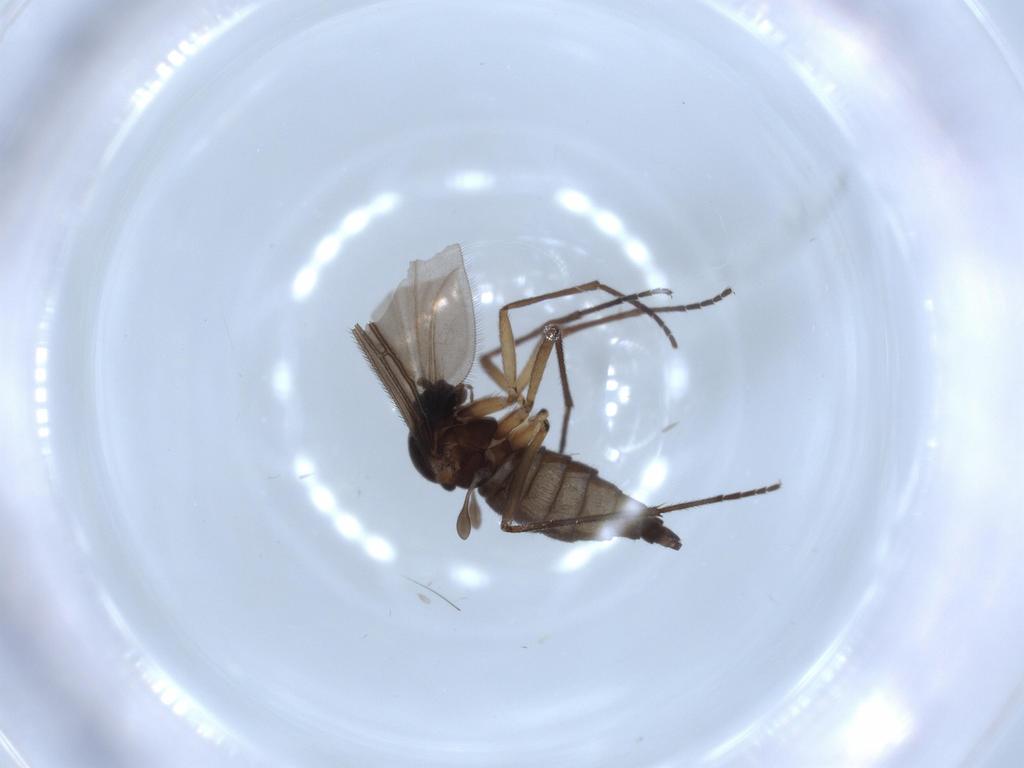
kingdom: Animalia
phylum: Arthropoda
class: Insecta
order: Diptera
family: Sciaridae
